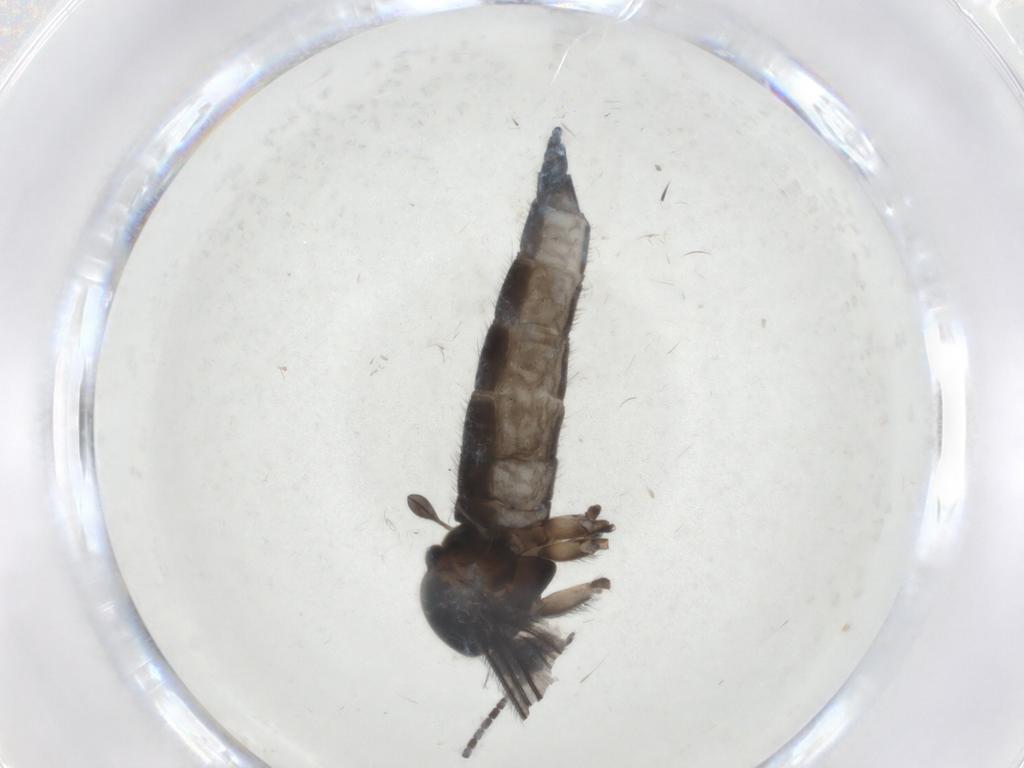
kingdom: Animalia
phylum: Arthropoda
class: Insecta
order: Diptera
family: Sciaridae
